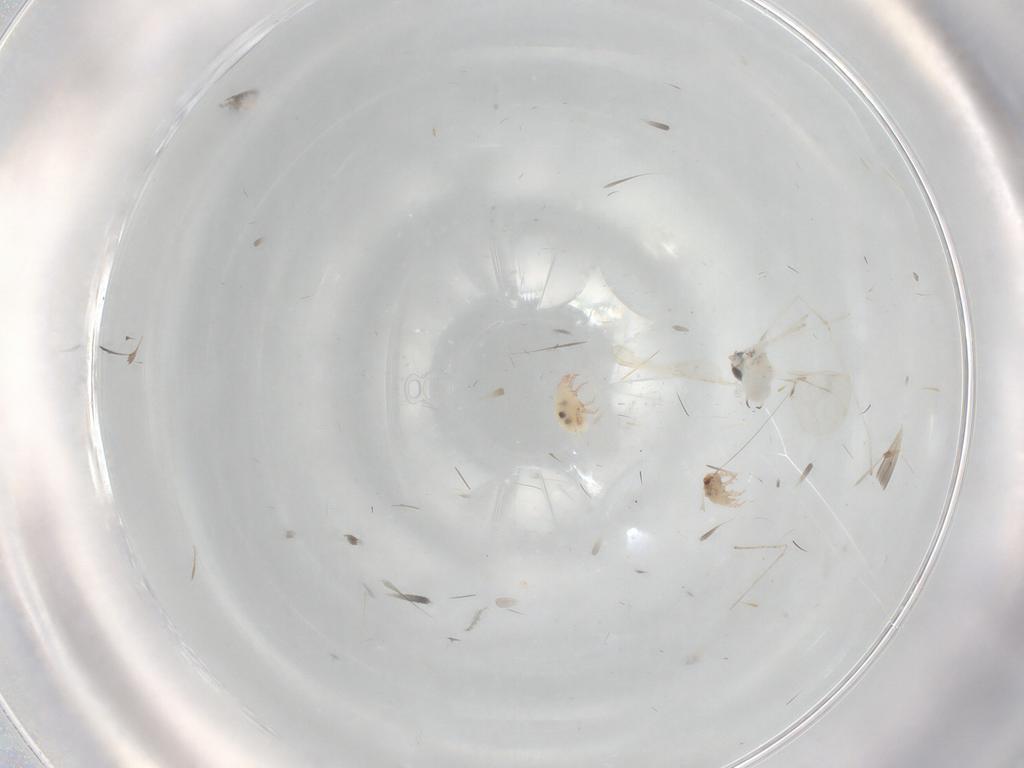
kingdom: Animalia
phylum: Arthropoda
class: Insecta
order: Diptera
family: Cecidomyiidae
